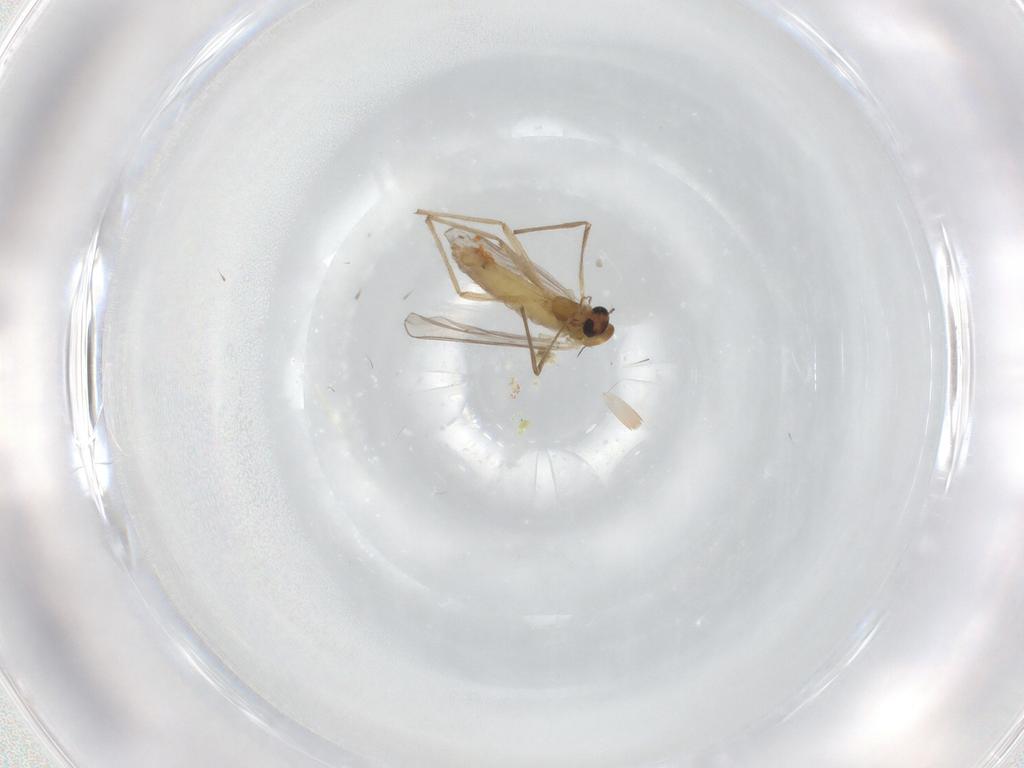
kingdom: Animalia
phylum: Arthropoda
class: Insecta
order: Diptera
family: Chironomidae
